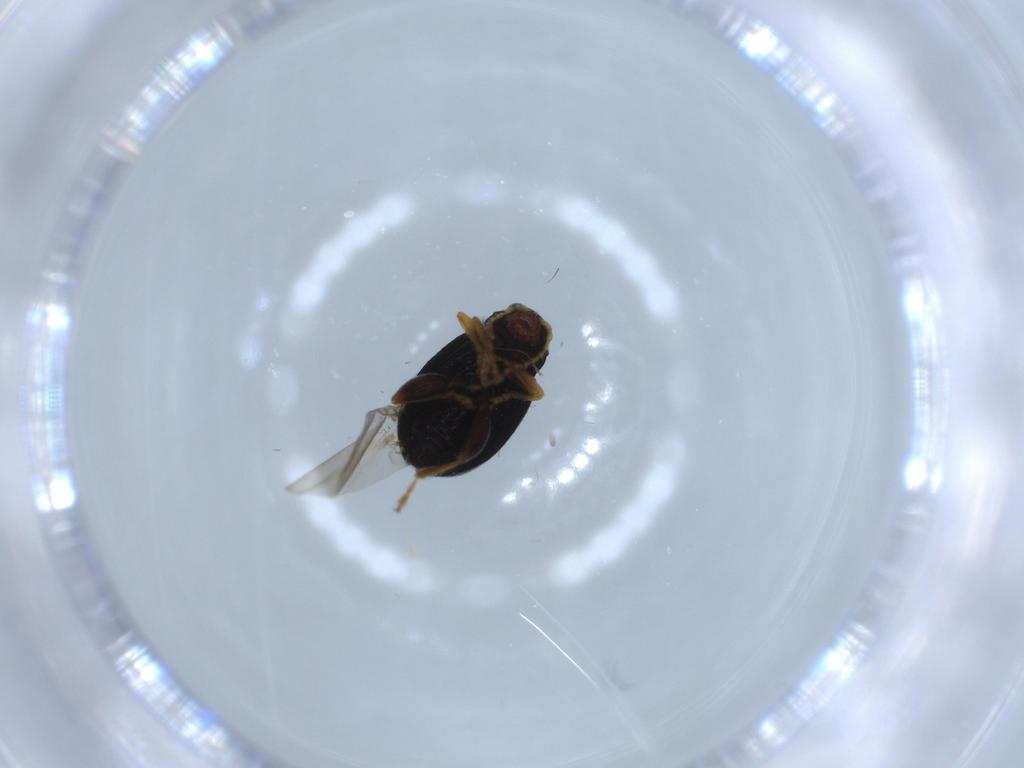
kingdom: Animalia
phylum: Arthropoda
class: Insecta
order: Coleoptera
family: Chrysomelidae
